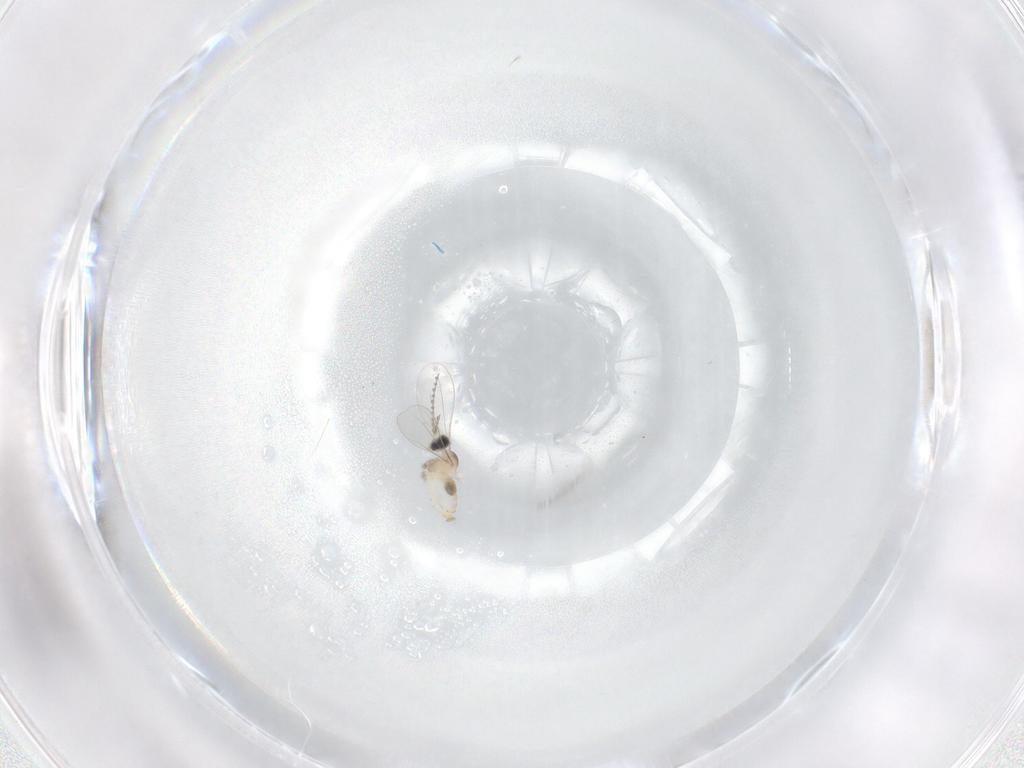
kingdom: Animalia
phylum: Arthropoda
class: Insecta
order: Diptera
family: Cecidomyiidae
